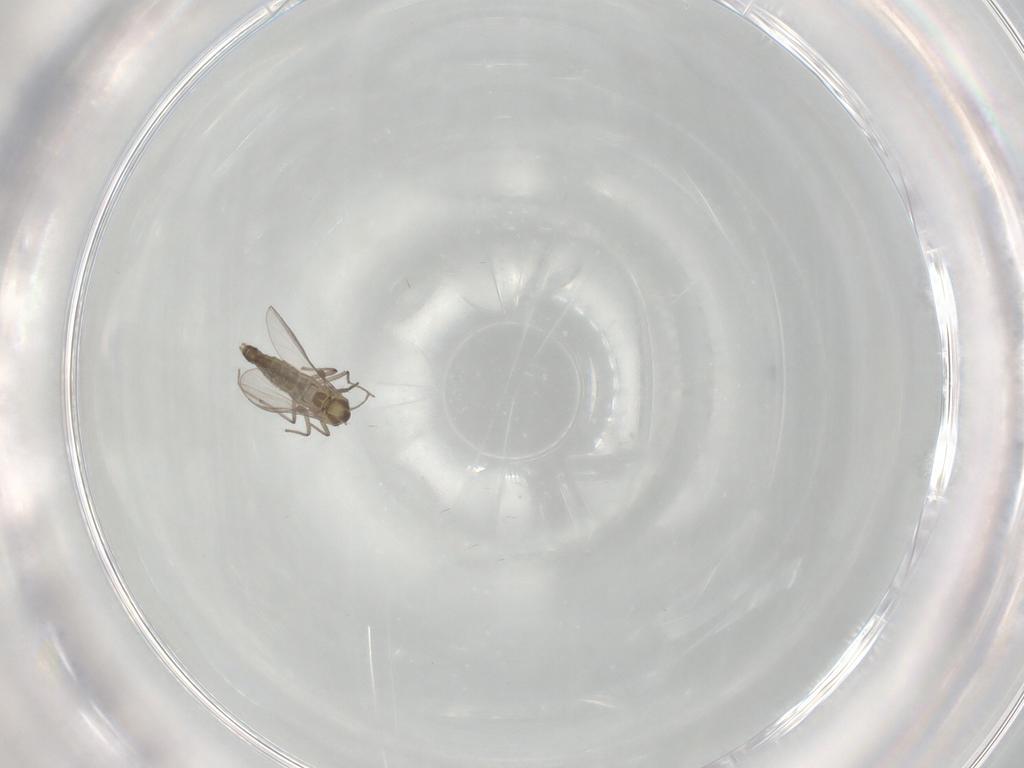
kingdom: Animalia
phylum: Arthropoda
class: Insecta
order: Diptera
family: Chironomidae
